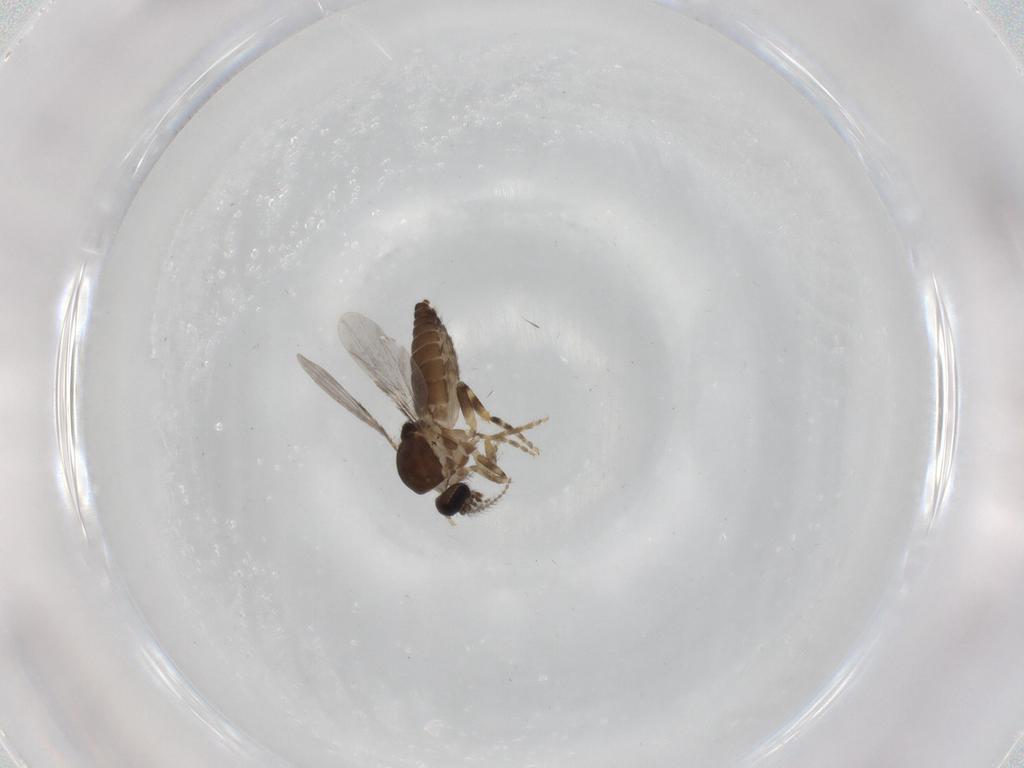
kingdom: Animalia
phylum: Arthropoda
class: Insecta
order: Diptera
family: Ceratopogonidae
